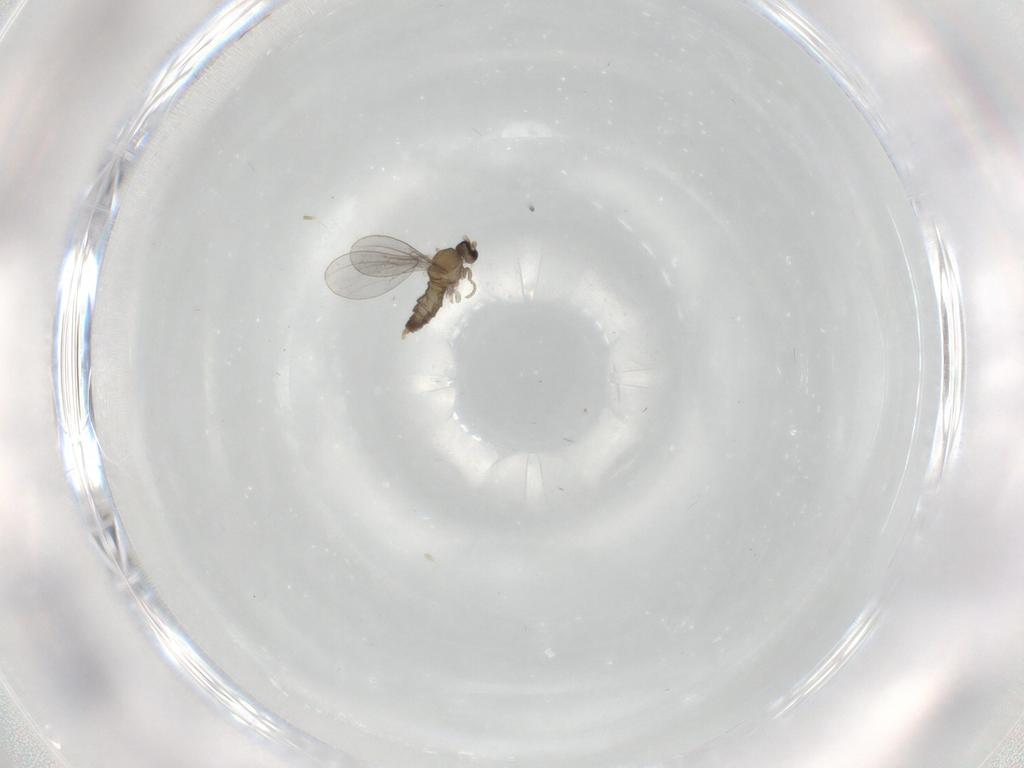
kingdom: Animalia
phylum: Arthropoda
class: Insecta
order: Diptera
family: Cecidomyiidae
